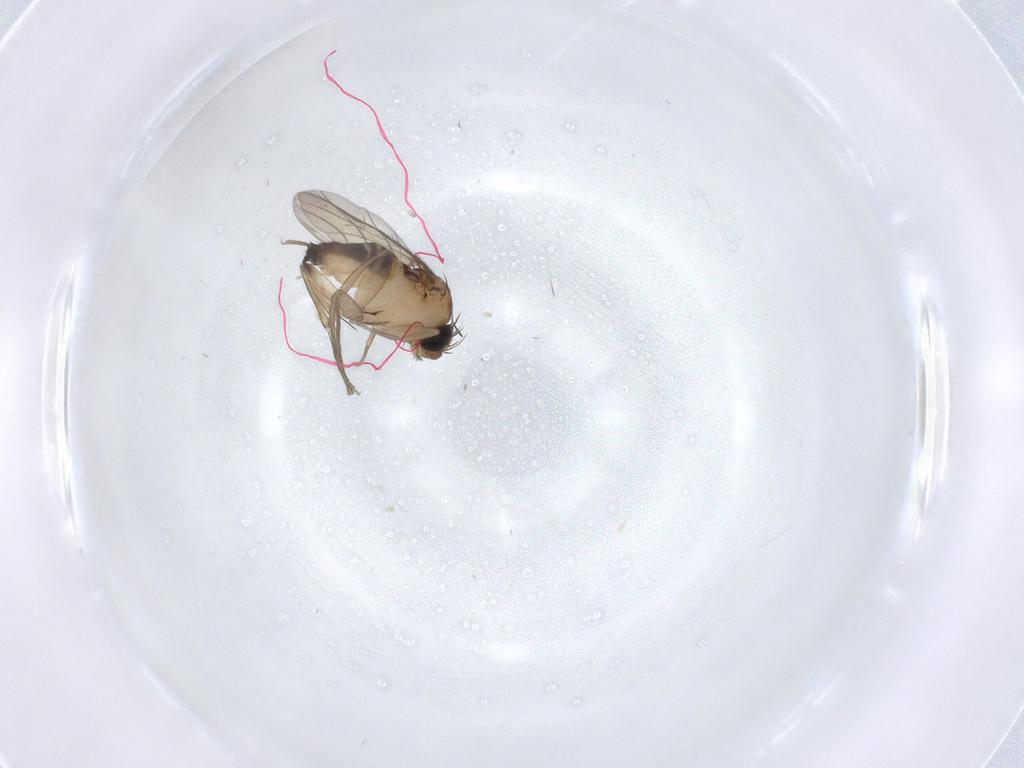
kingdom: Animalia
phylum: Arthropoda
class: Insecta
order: Diptera
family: Phoridae
